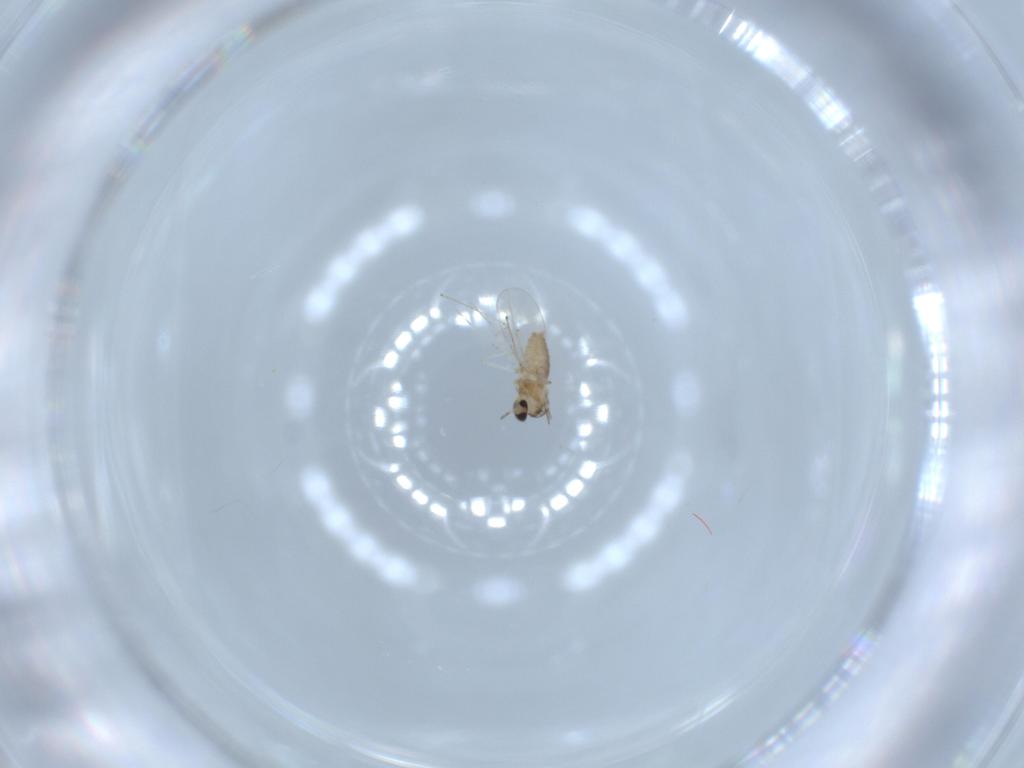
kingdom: Animalia
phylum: Arthropoda
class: Insecta
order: Diptera
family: Cecidomyiidae
